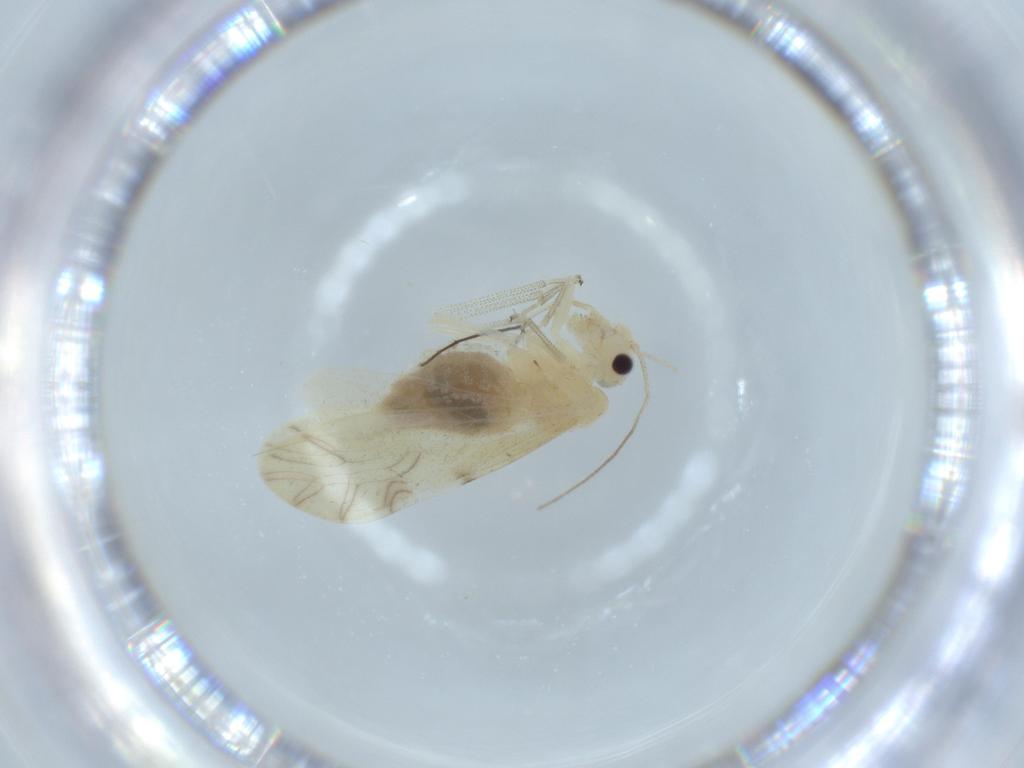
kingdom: Animalia
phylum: Arthropoda
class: Insecta
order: Psocodea
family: Caeciliusidae
